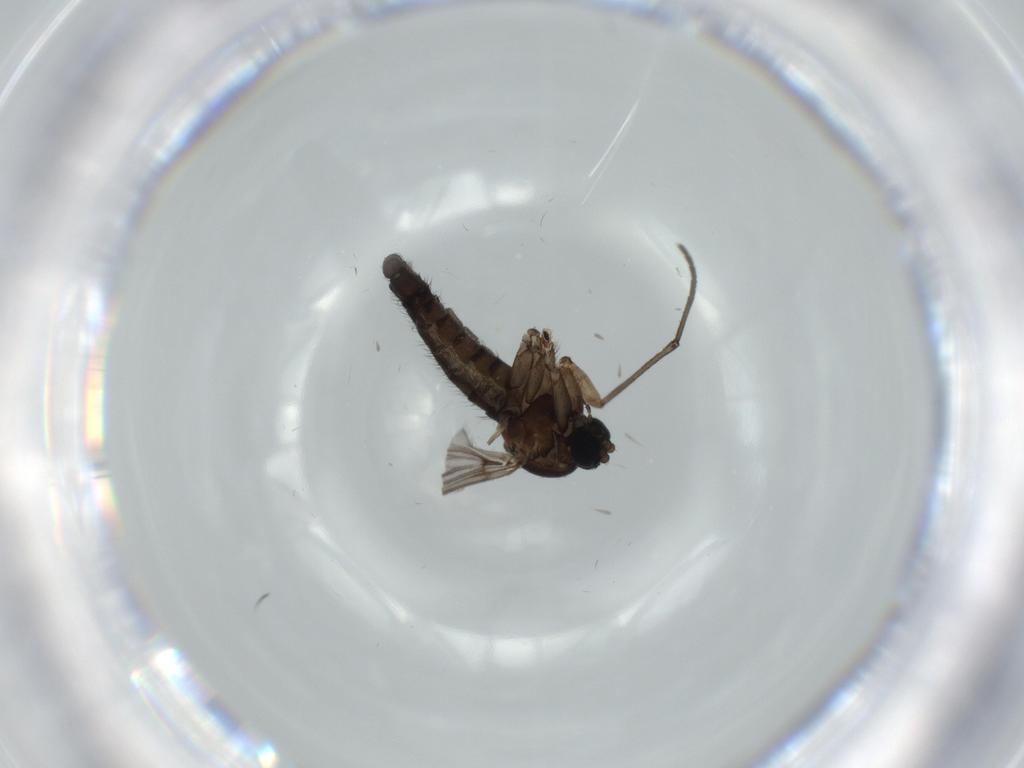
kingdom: Animalia
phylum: Arthropoda
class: Insecta
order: Diptera
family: Sciaridae
